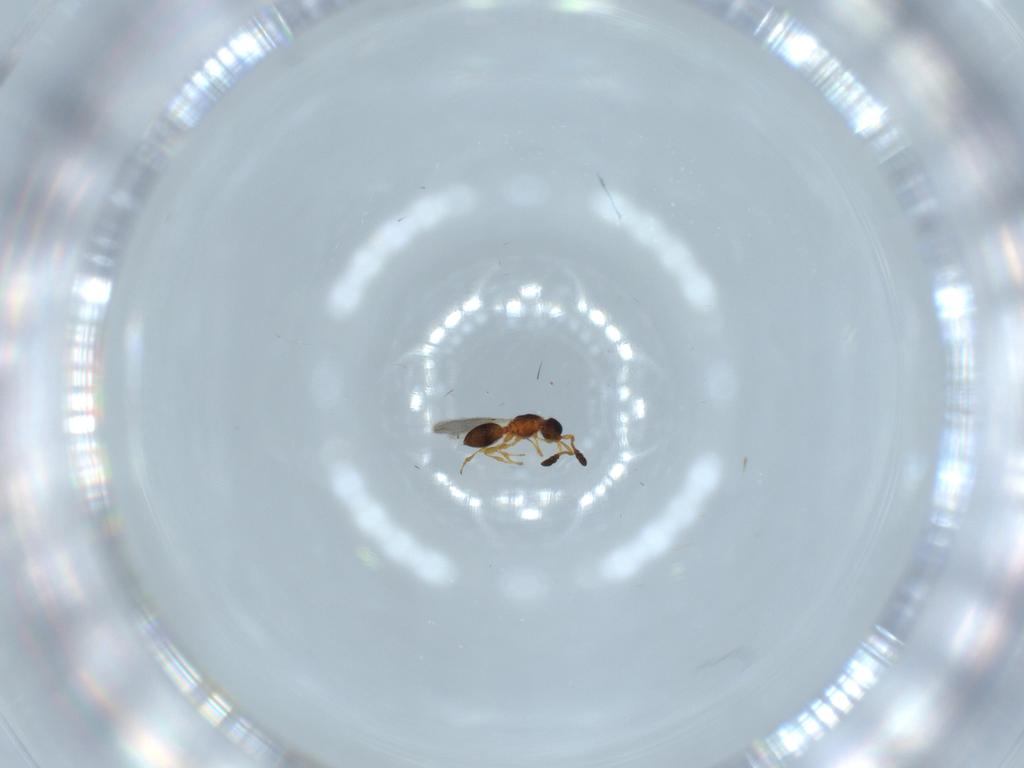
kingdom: Animalia
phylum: Arthropoda
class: Insecta
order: Hymenoptera
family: Diapriidae
